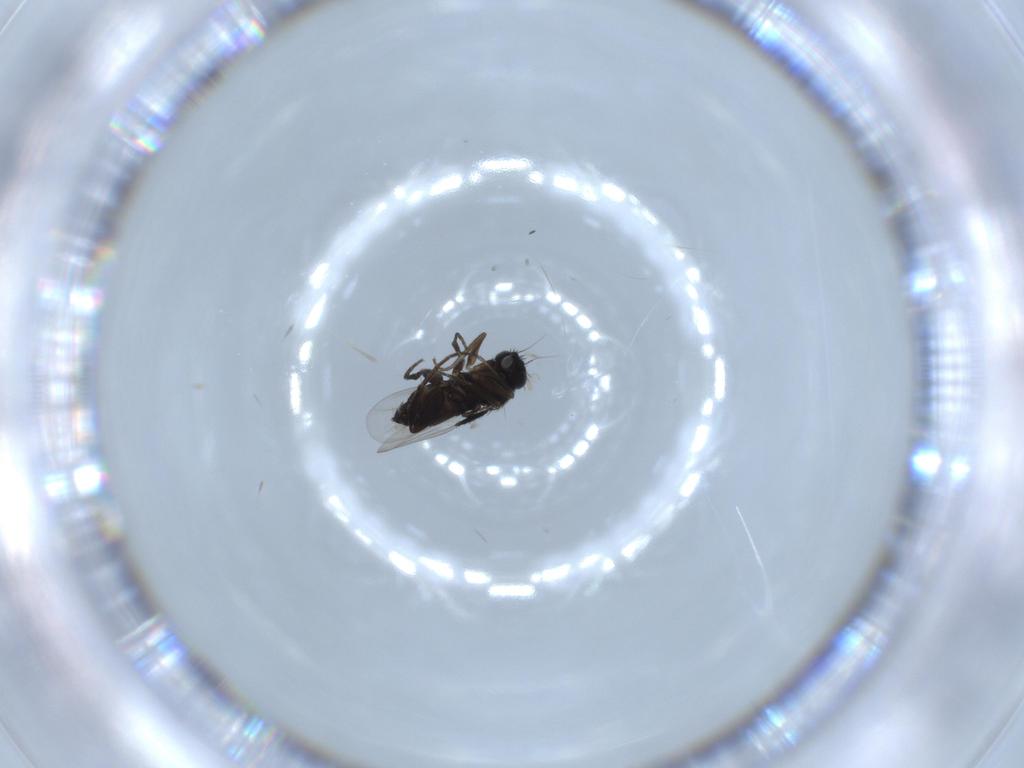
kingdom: Animalia
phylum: Arthropoda
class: Insecta
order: Diptera
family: Phoridae
